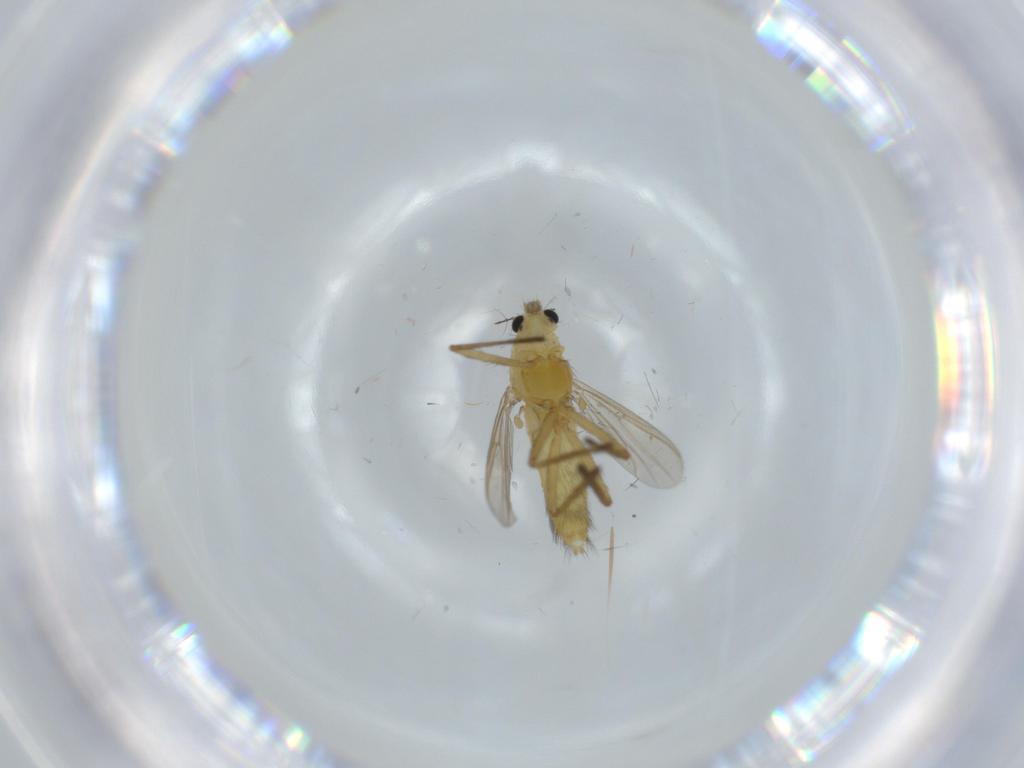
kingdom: Animalia
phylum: Arthropoda
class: Insecta
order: Diptera
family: Chironomidae
